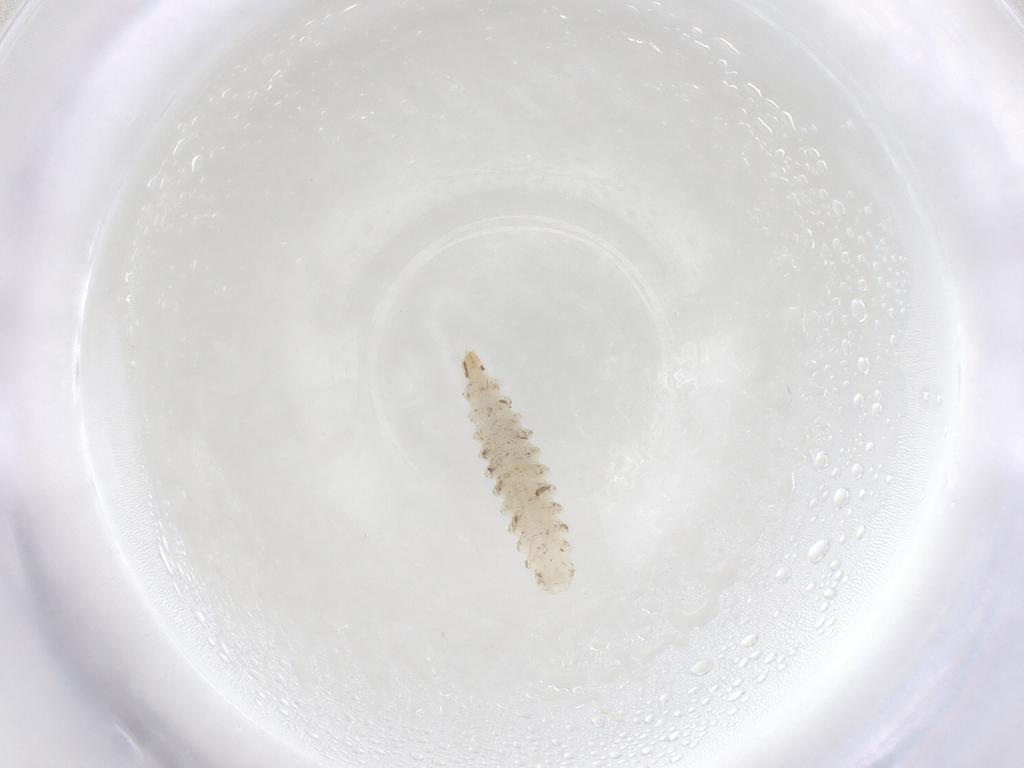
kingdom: Animalia
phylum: Arthropoda
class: Insecta
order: Diptera
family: Stratiomyidae
